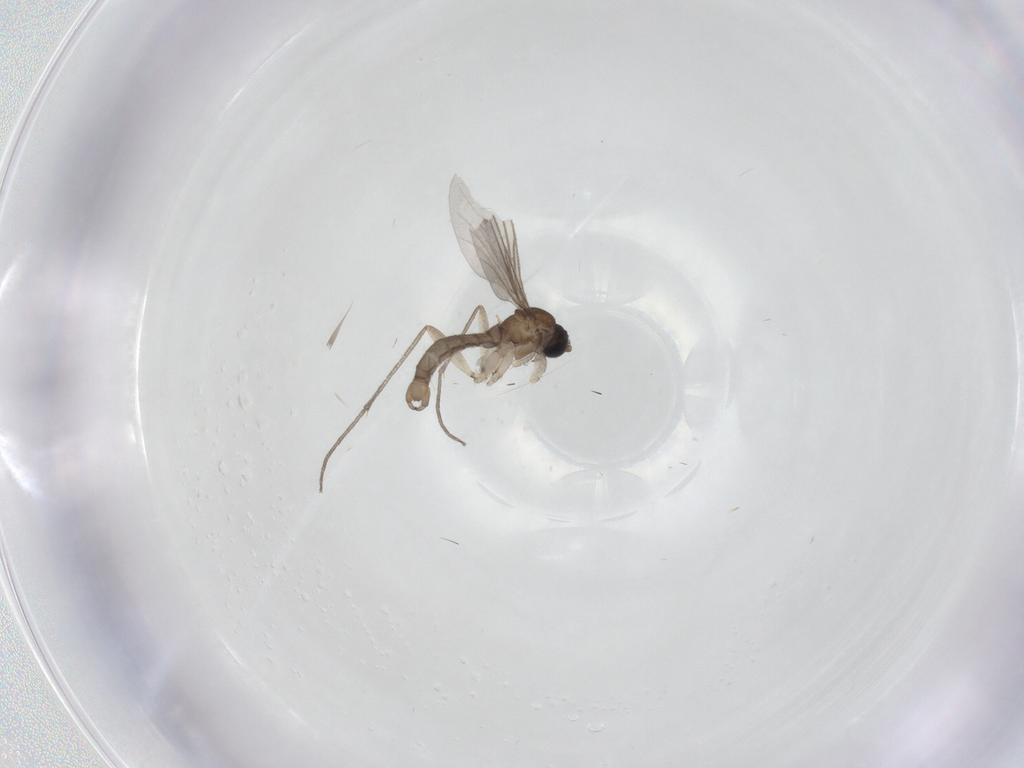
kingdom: Animalia
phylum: Arthropoda
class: Insecta
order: Diptera
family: Sciaridae
